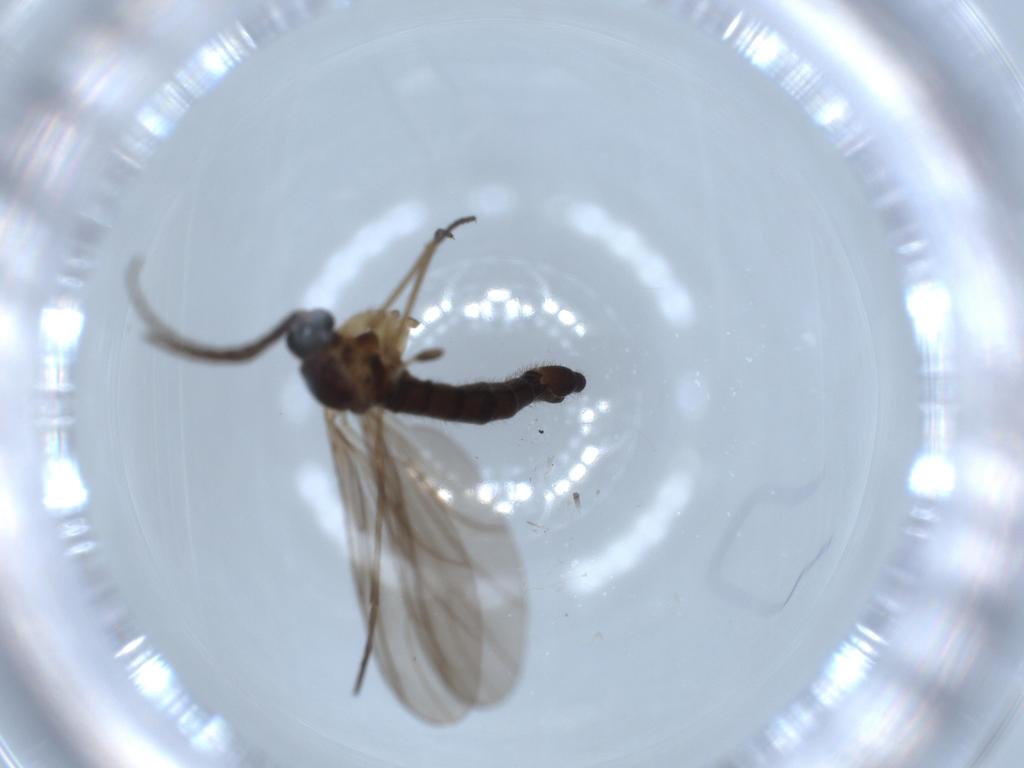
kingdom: Animalia
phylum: Arthropoda
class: Insecta
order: Diptera
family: Sciaridae
